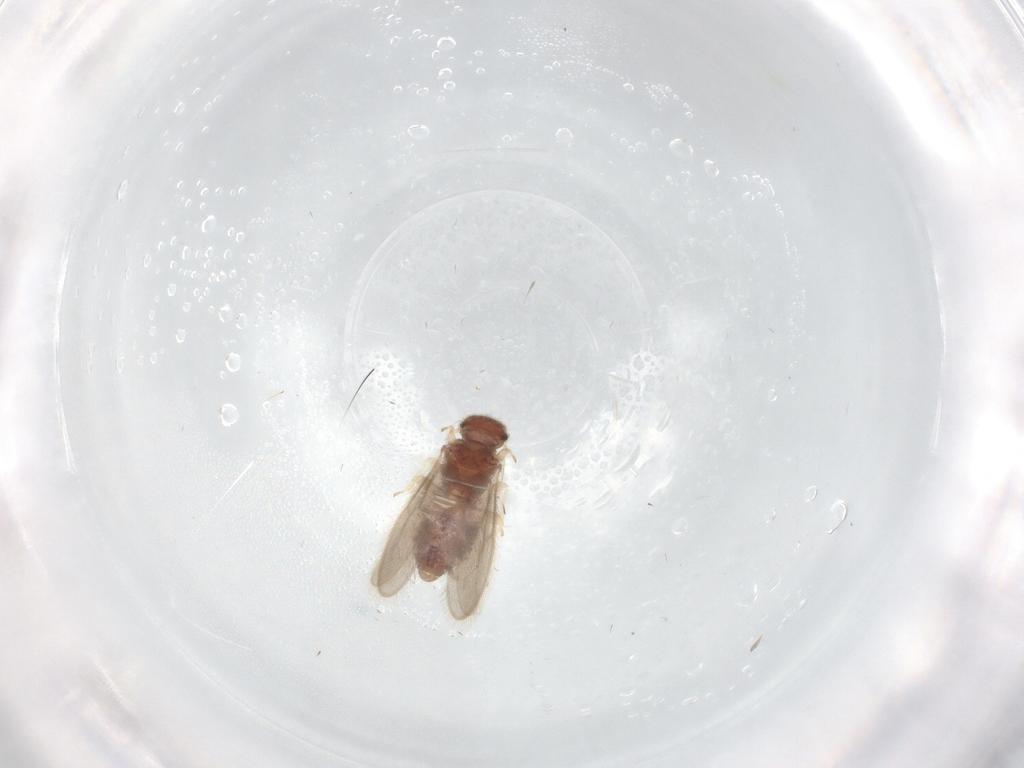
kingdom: Animalia
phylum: Arthropoda
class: Insecta
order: Psocodea
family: Archipsocidae
